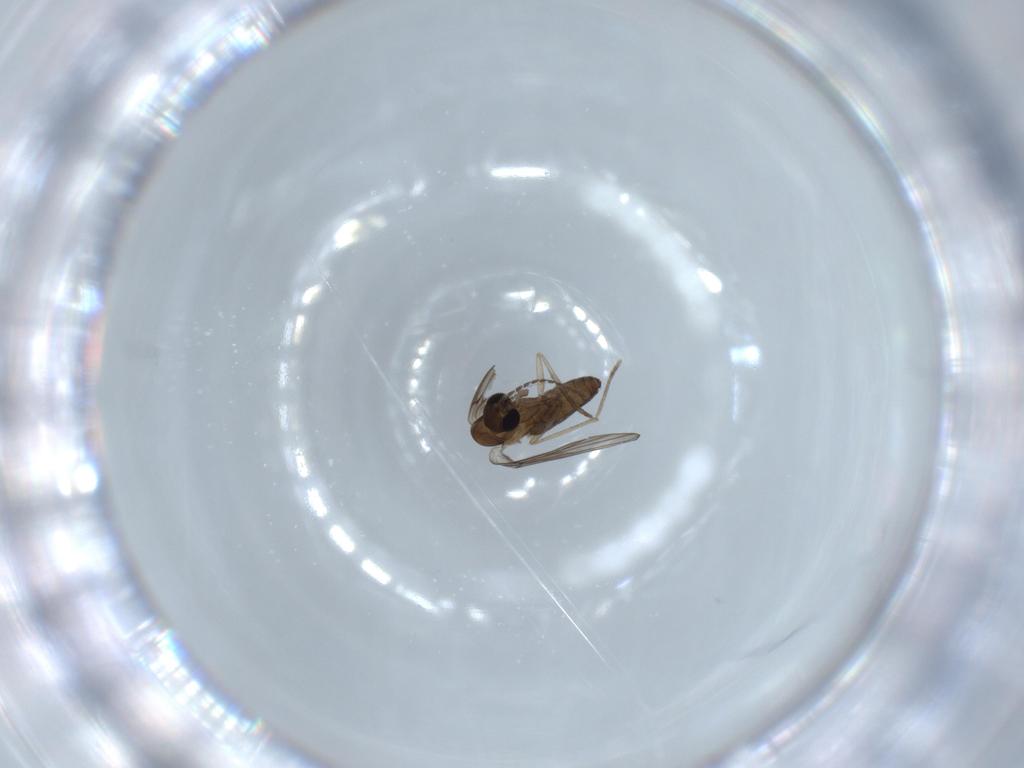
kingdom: Animalia
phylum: Arthropoda
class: Insecta
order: Diptera
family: Psychodidae
